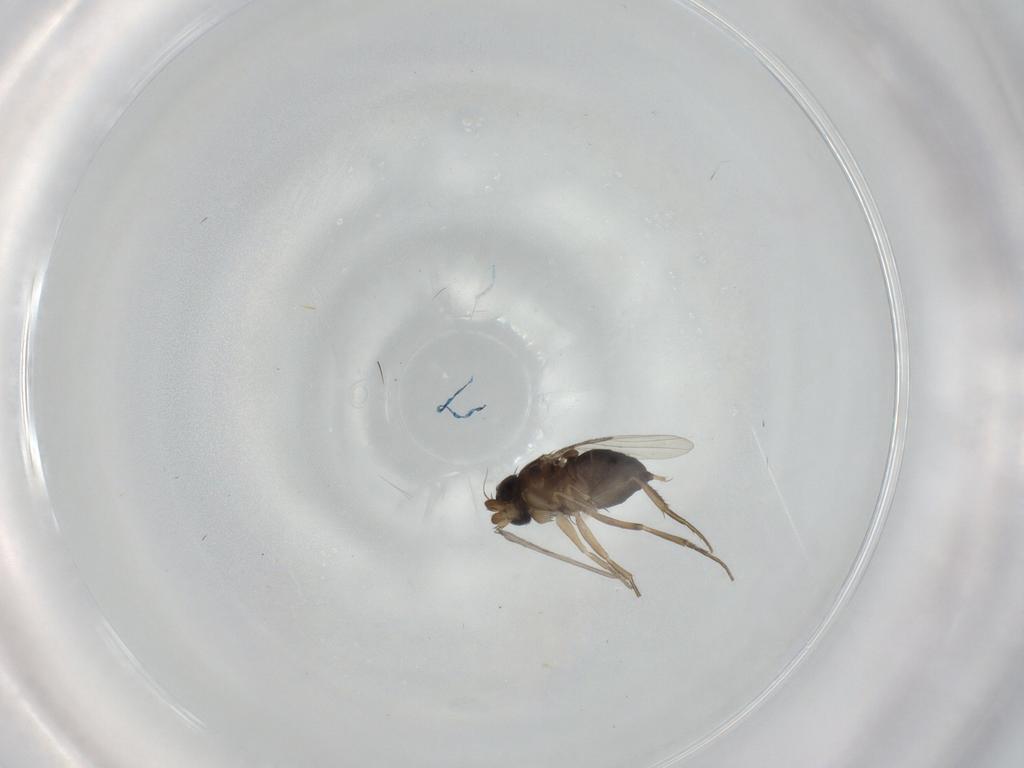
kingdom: Animalia
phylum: Arthropoda
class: Insecta
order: Diptera
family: Phoridae
